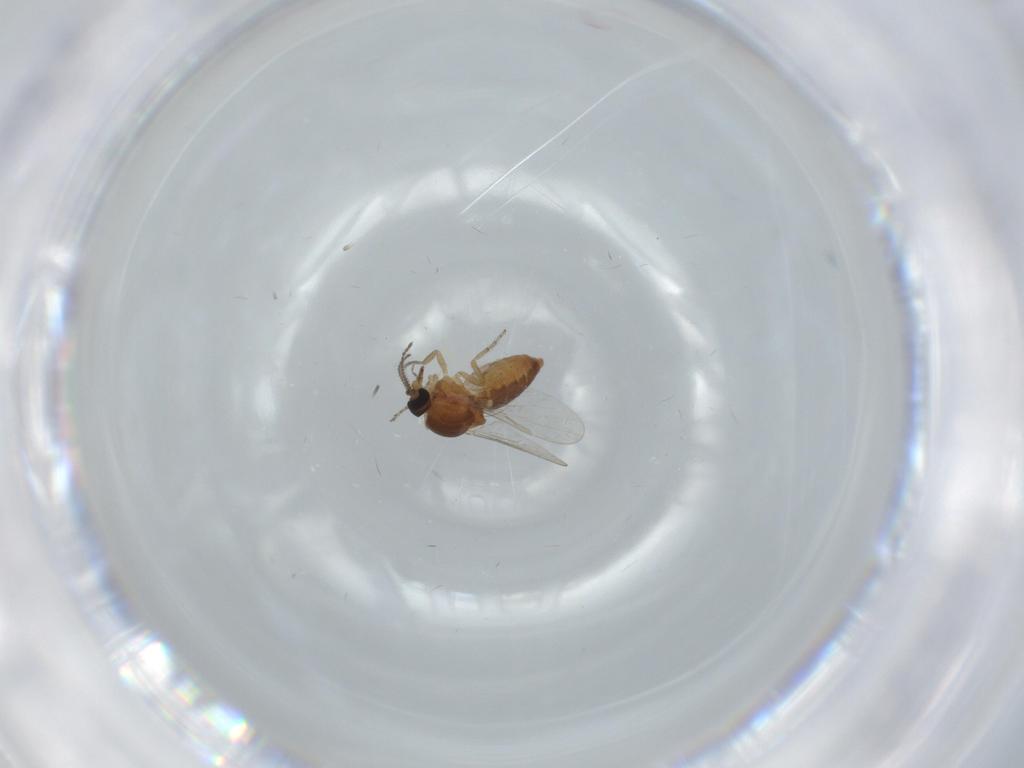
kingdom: Animalia
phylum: Arthropoda
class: Insecta
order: Diptera
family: Ceratopogonidae
